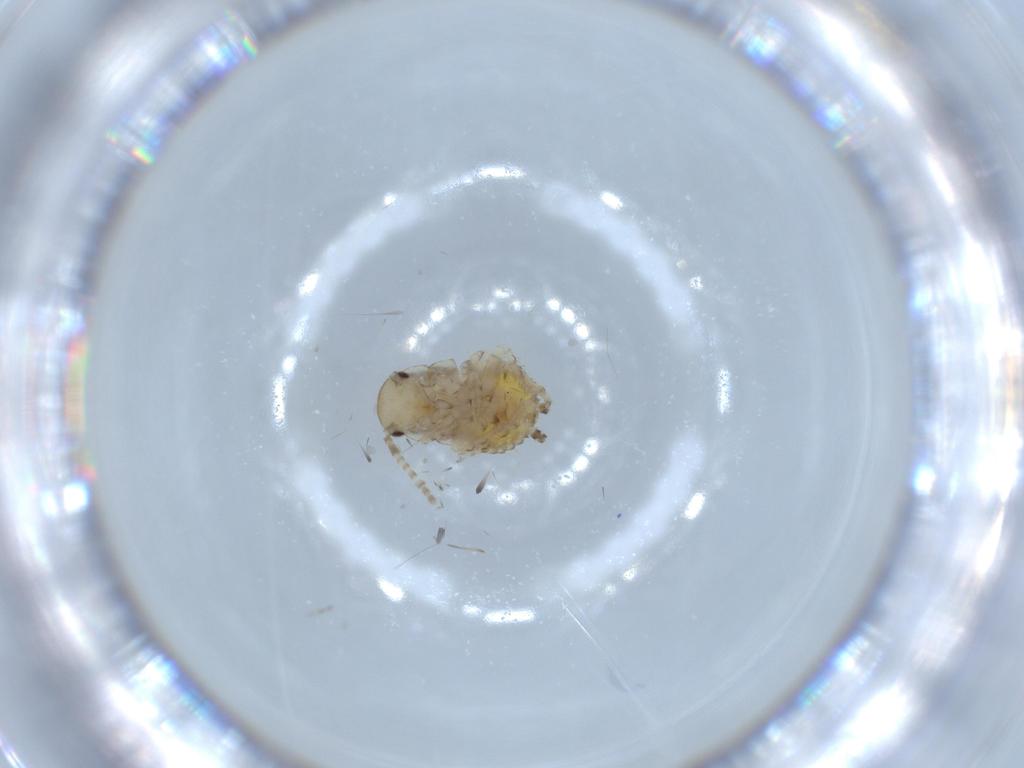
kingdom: Animalia
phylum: Arthropoda
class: Insecta
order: Blattodea
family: Ectobiidae
